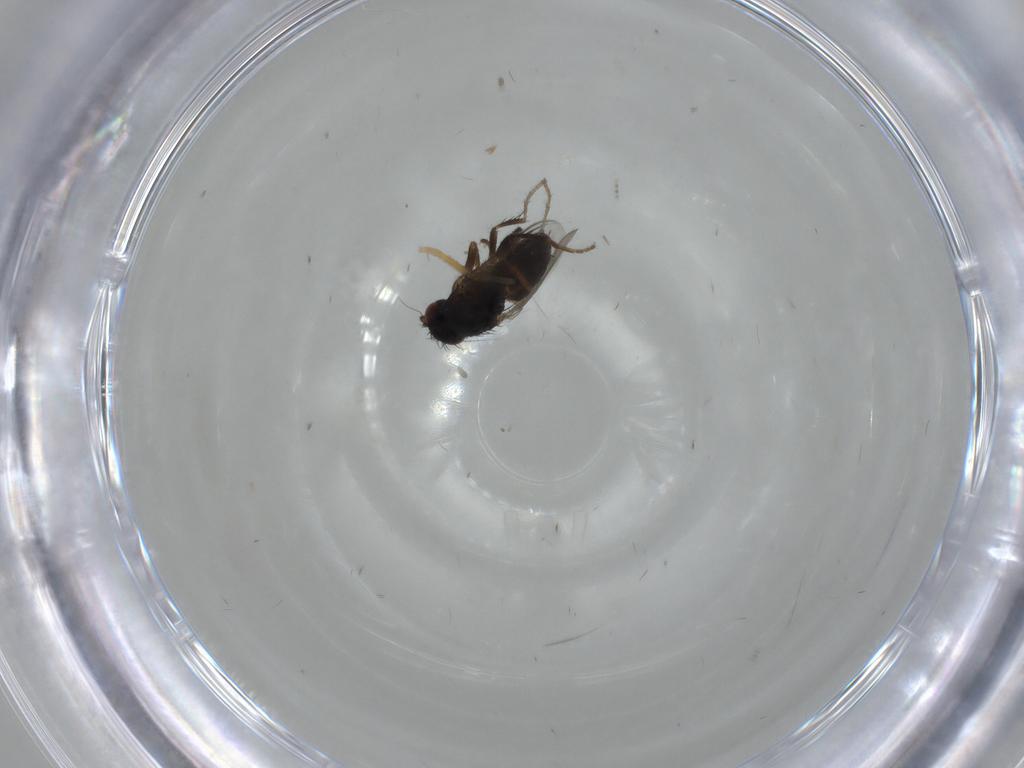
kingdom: Animalia
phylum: Arthropoda
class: Insecta
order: Diptera
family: Sphaeroceridae
